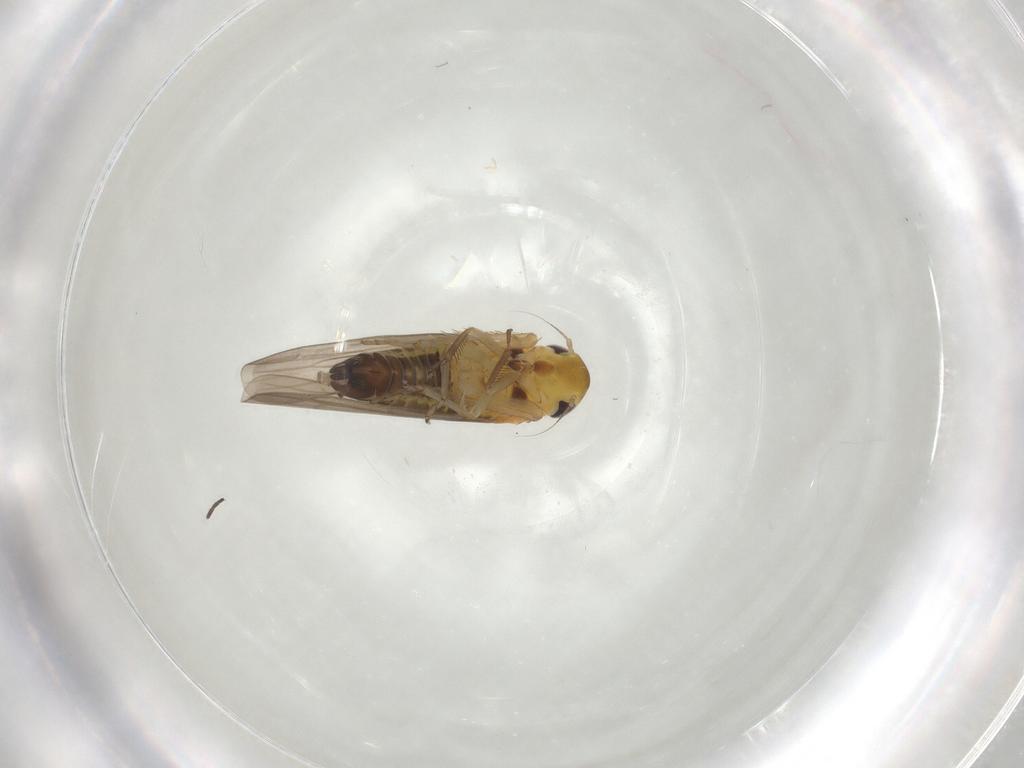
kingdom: Animalia
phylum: Arthropoda
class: Insecta
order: Hemiptera
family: Cicadellidae
